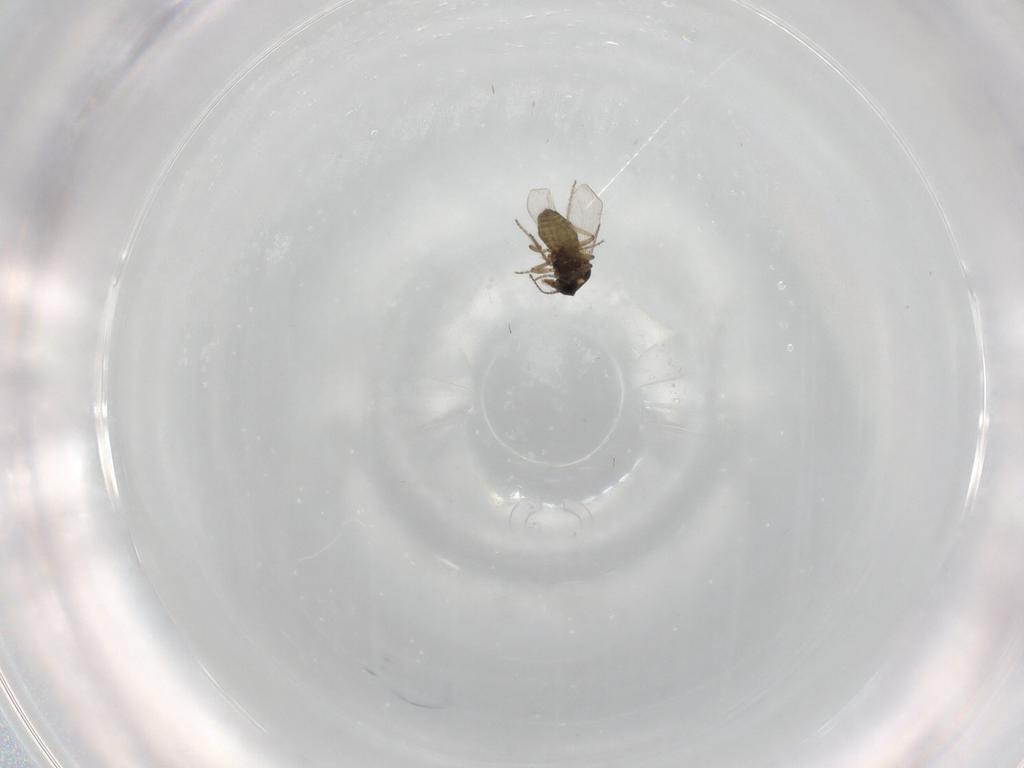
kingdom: Animalia
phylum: Arthropoda
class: Insecta
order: Diptera
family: Ceratopogonidae
